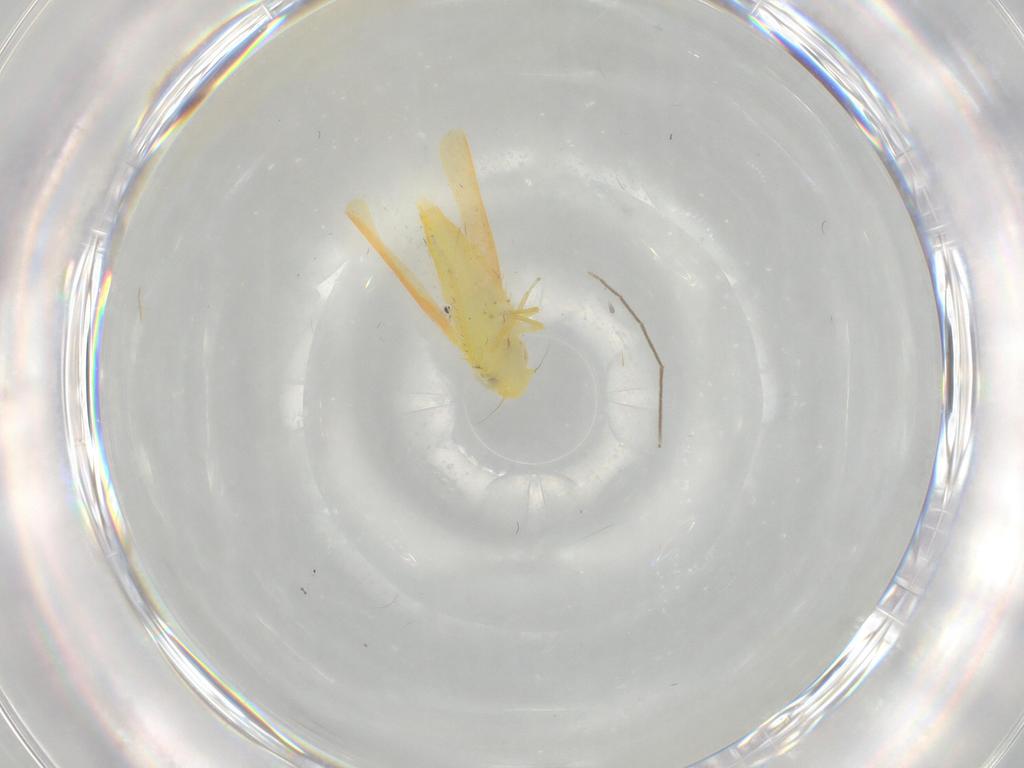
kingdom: Animalia
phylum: Arthropoda
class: Insecta
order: Hemiptera
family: Cicadellidae
